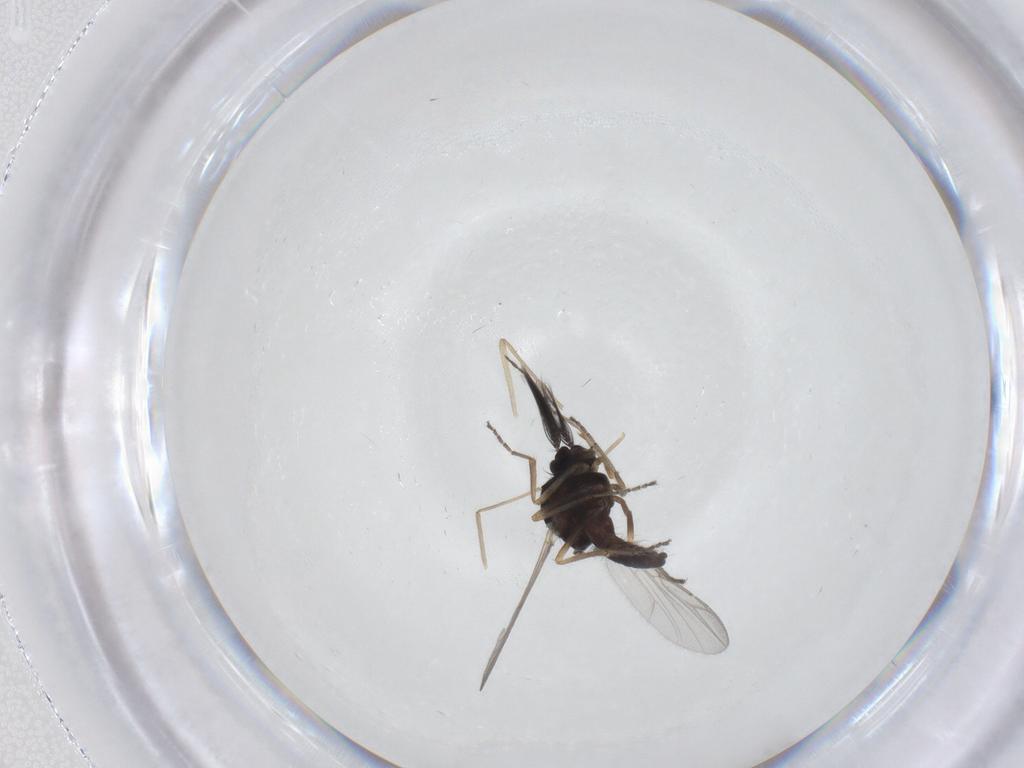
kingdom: Animalia
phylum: Arthropoda
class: Insecta
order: Diptera
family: Ceratopogonidae
